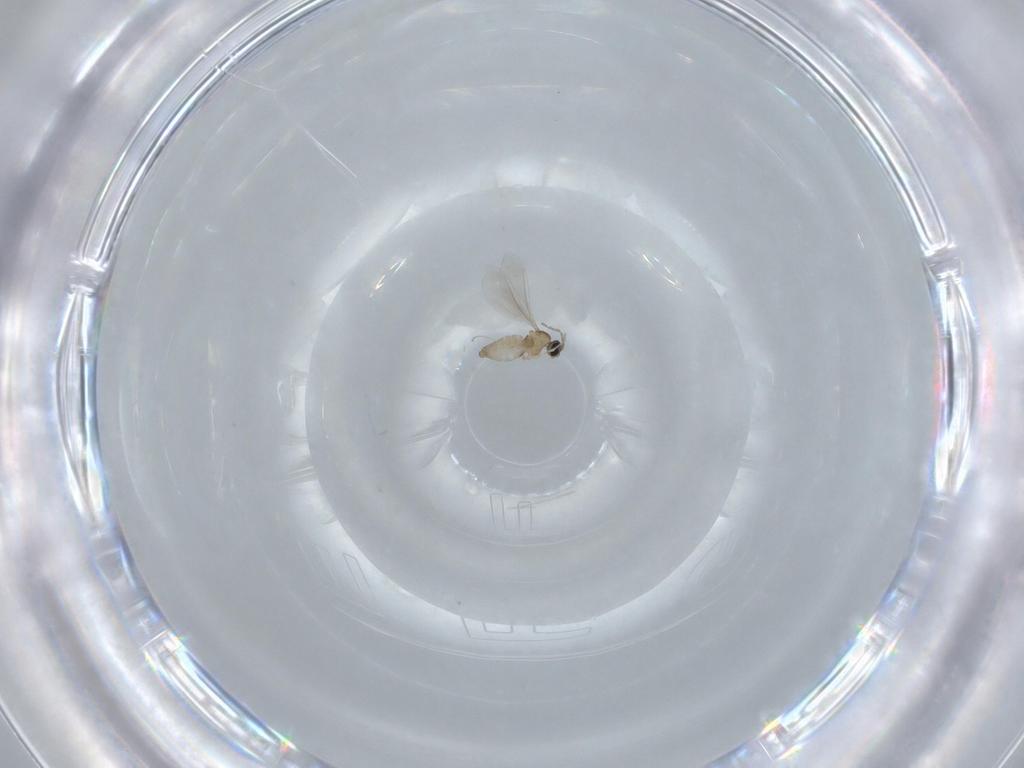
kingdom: Animalia
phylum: Arthropoda
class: Insecta
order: Diptera
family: Cecidomyiidae
